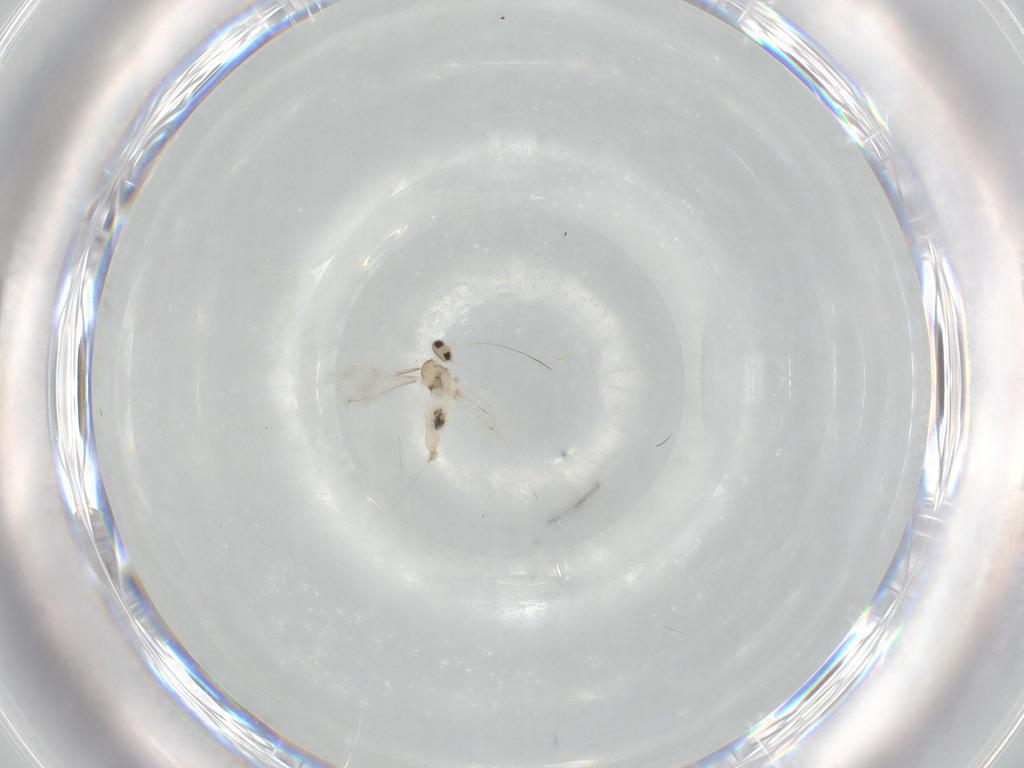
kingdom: Animalia
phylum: Arthropoda
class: Insecta
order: Diptera
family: Cecidomyiidae
